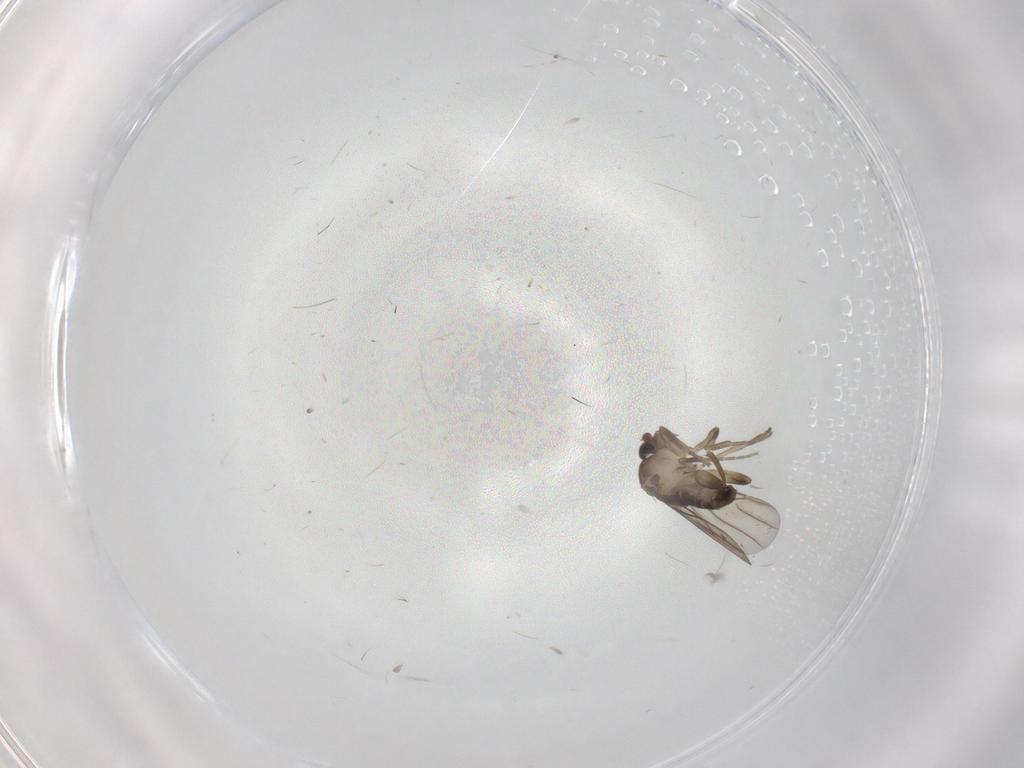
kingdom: Animalia
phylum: Arthropoda
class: Insecta
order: Diptera
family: Phoridae
